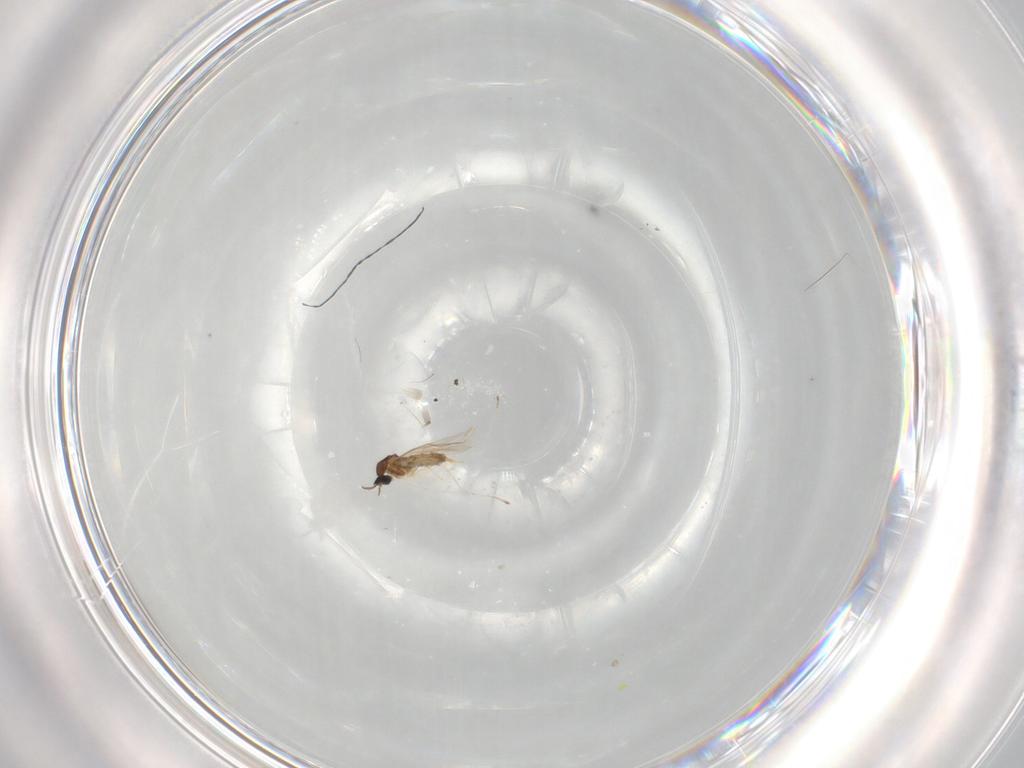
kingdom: Animalia
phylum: Arthropoda
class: Insecta
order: Diptera
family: Cecidomyiidae
